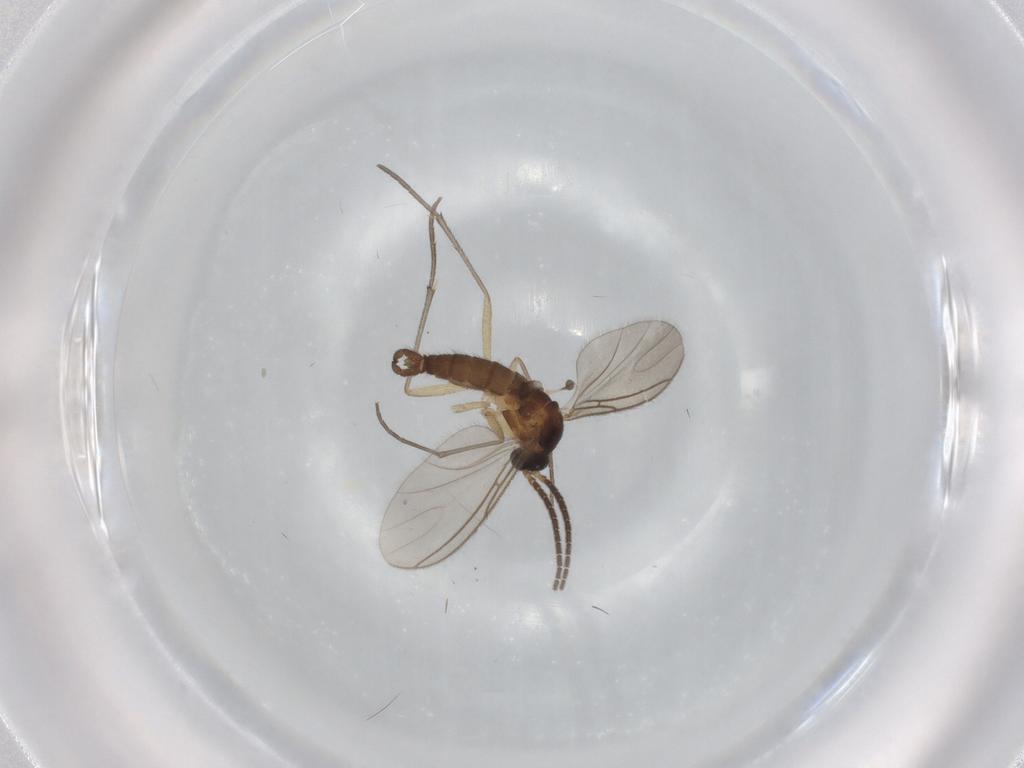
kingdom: Animalia
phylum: Arthropoda
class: Insecta
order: Diptera
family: Sciaridae
